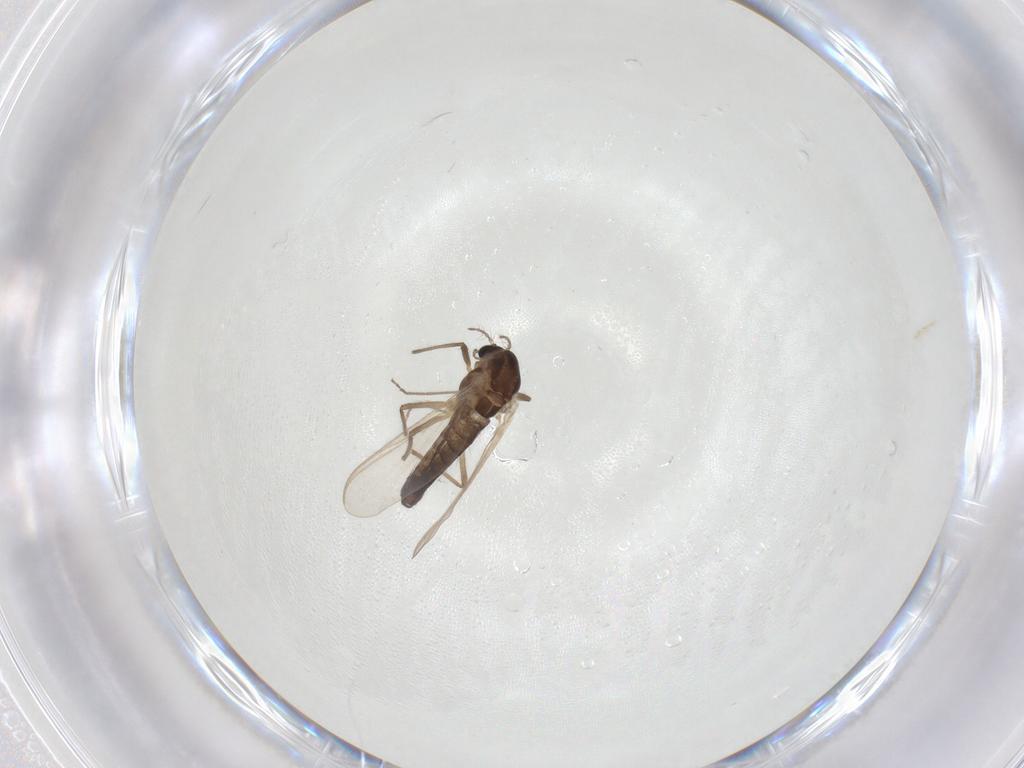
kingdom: Animalia
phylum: Arthropoda
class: Insecta
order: Diptera
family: Chironomidae
